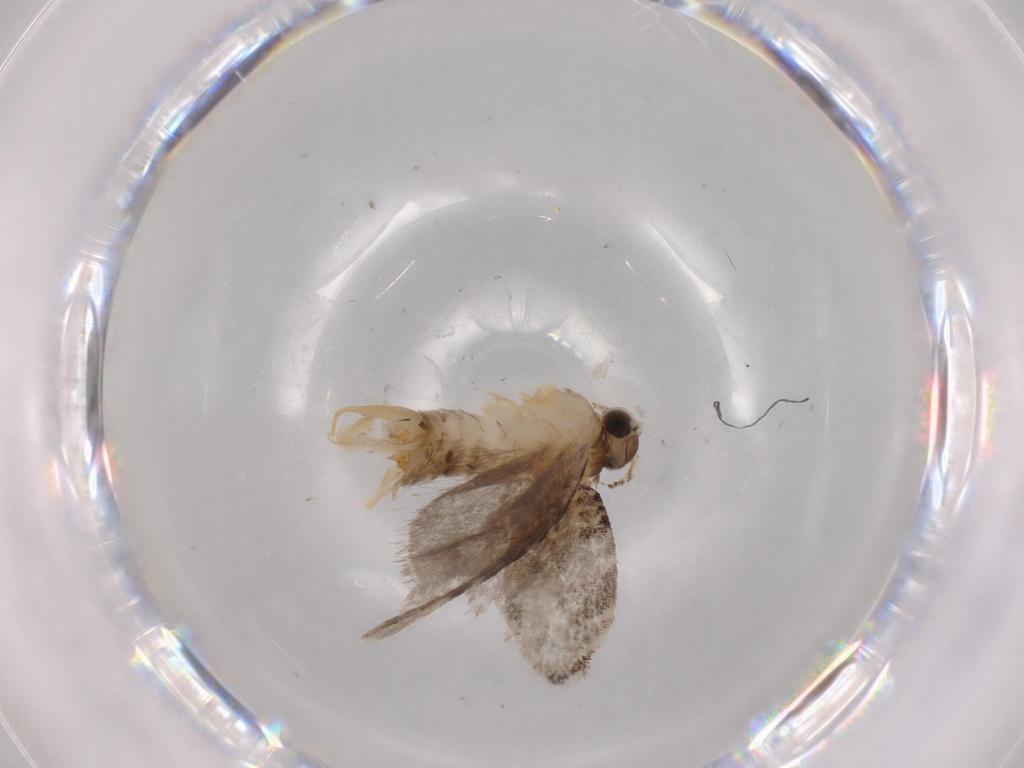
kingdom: Animalia
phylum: Arthropoda
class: Insecta
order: Lepidoptera
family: Tineidae
